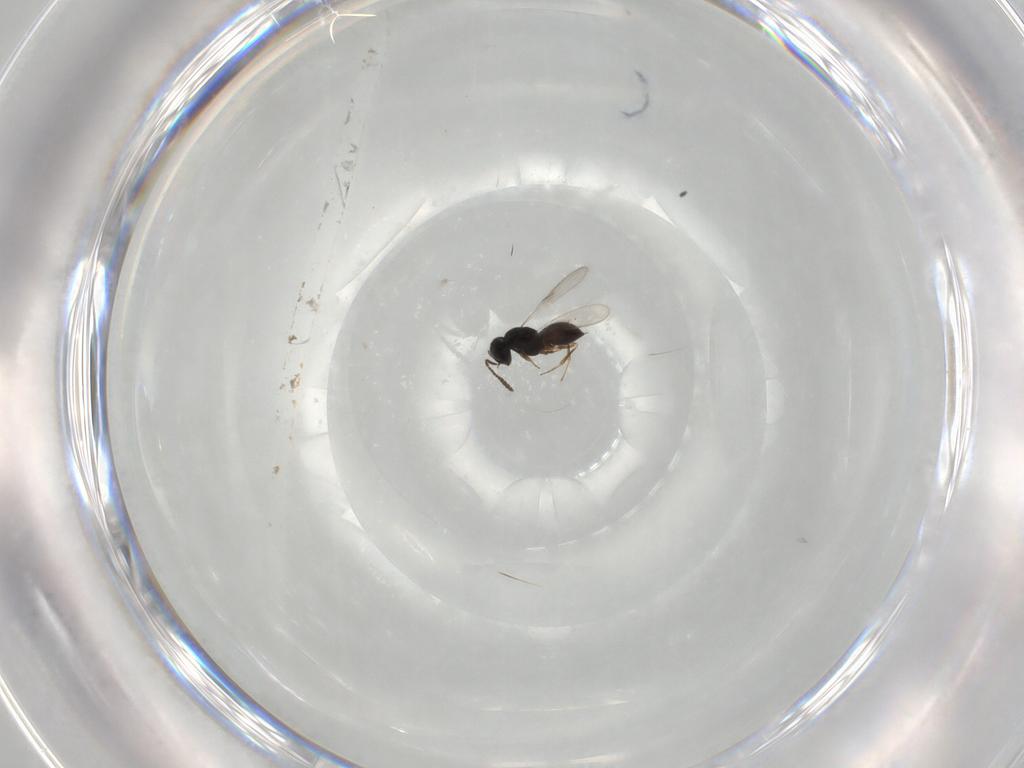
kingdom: Animalia
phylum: Arthropoda
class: Insecta
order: Hymenoptera
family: Scelionidae
